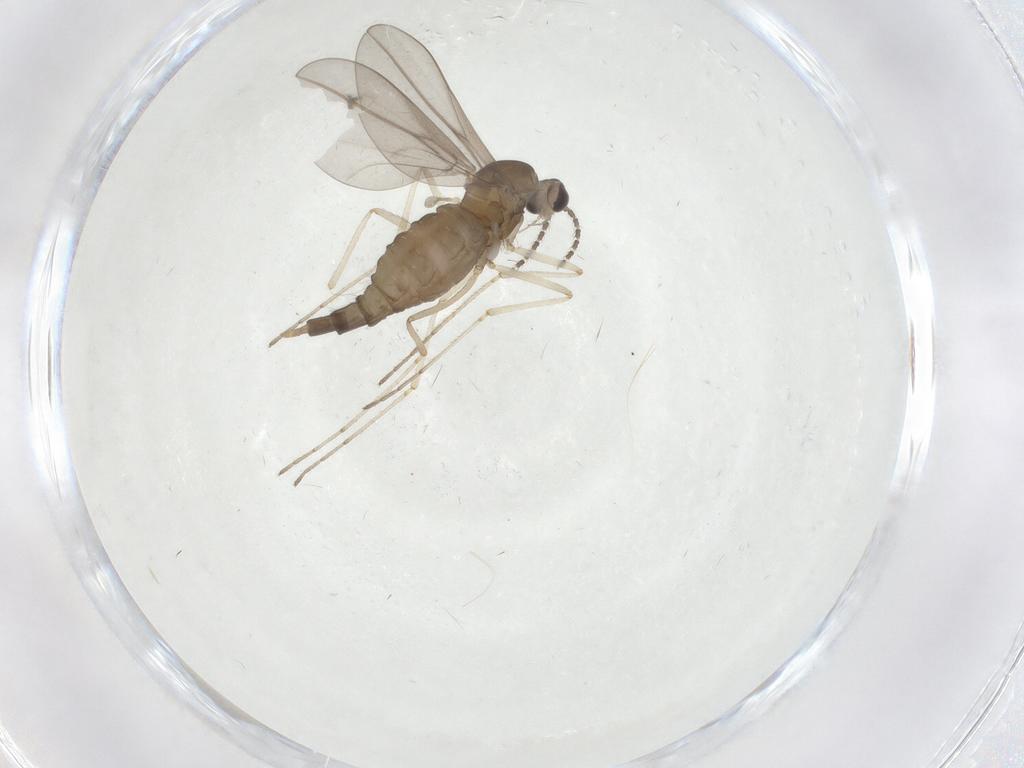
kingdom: Animalia
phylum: Arthropoda
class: Insecta
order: Diptera
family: Cecidomyiidae
